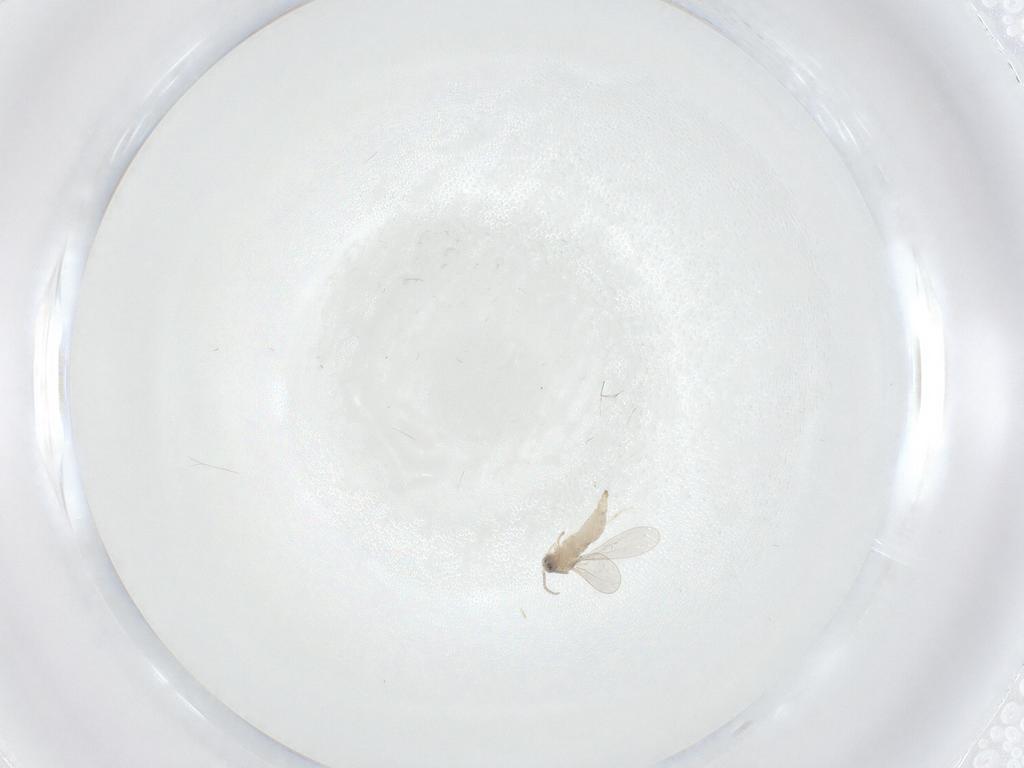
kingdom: Animalia
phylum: Arthropoda
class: Insecta
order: Diptera
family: Cecidomyiidae
